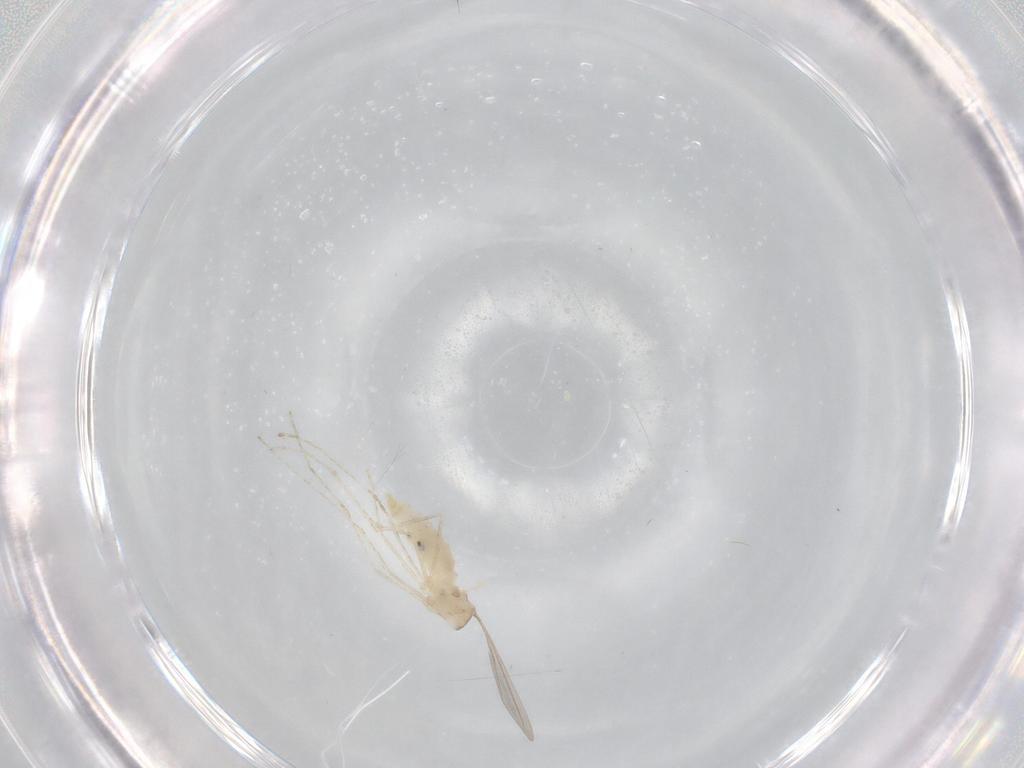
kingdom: Animalia
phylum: Arthropoda
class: Insecta
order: Diptera
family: Cecidomyiidae
